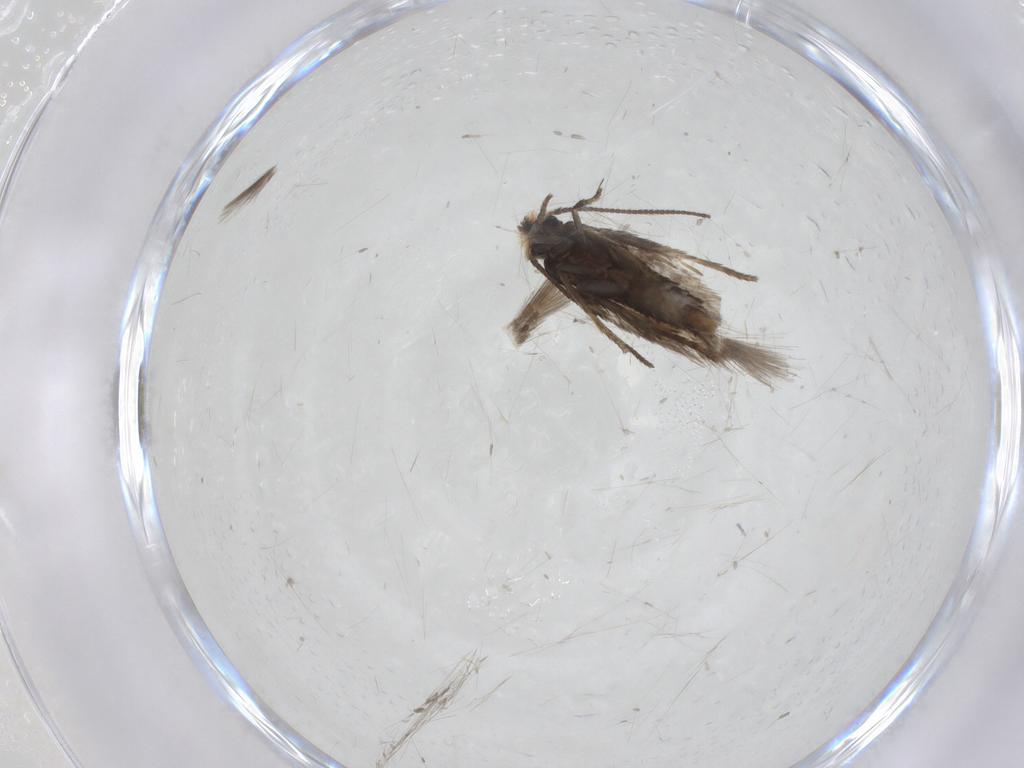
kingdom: Animalia
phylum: Arthropoda
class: Insecta
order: Lepidoptera
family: Nepticulidae
